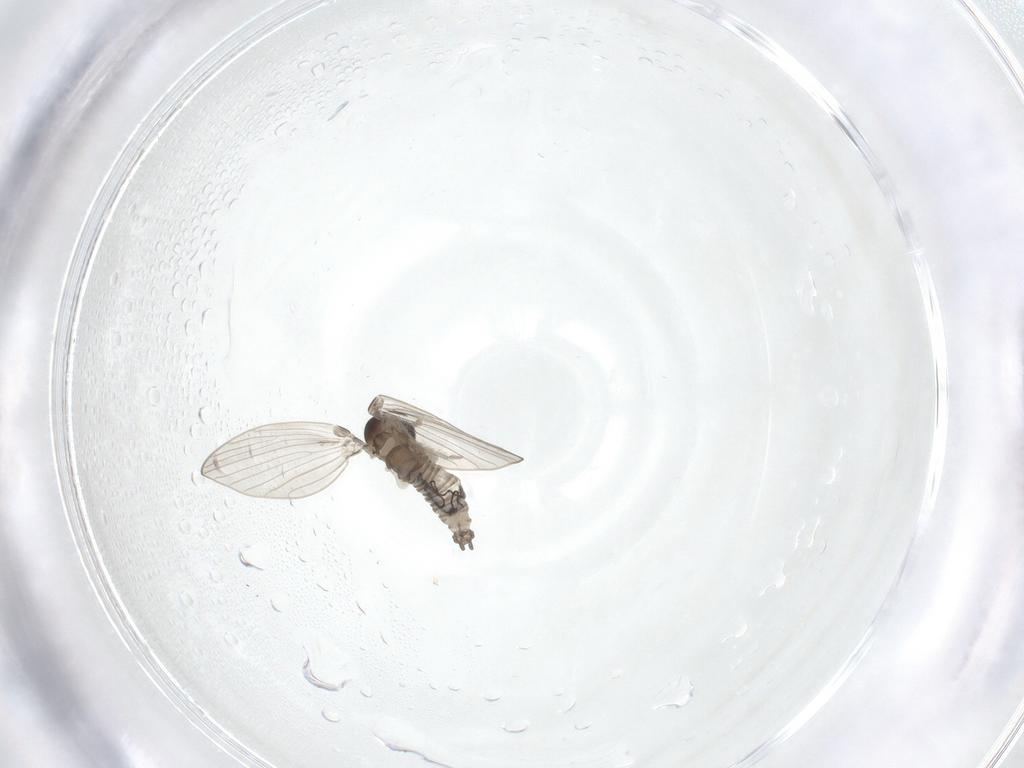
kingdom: Animalia
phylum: Arthropoda
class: Insecta
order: Diptera
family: Psychodidae
